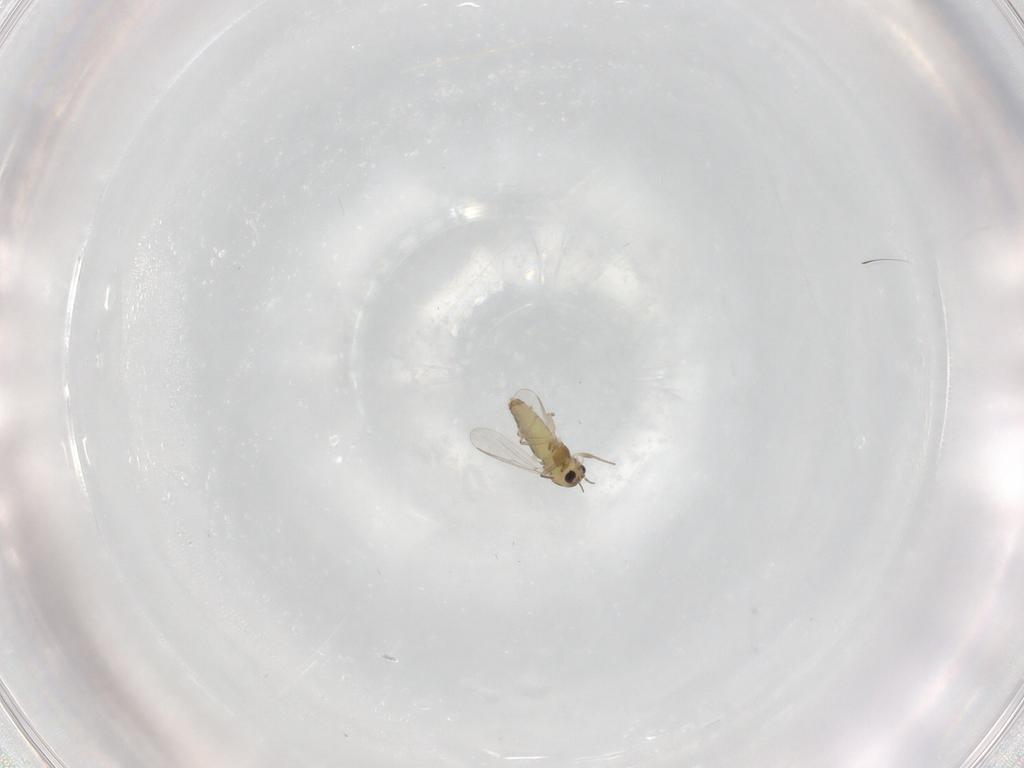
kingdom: Animalia
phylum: Arthropoda
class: Insecta
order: Diptera
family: Chironomidae
